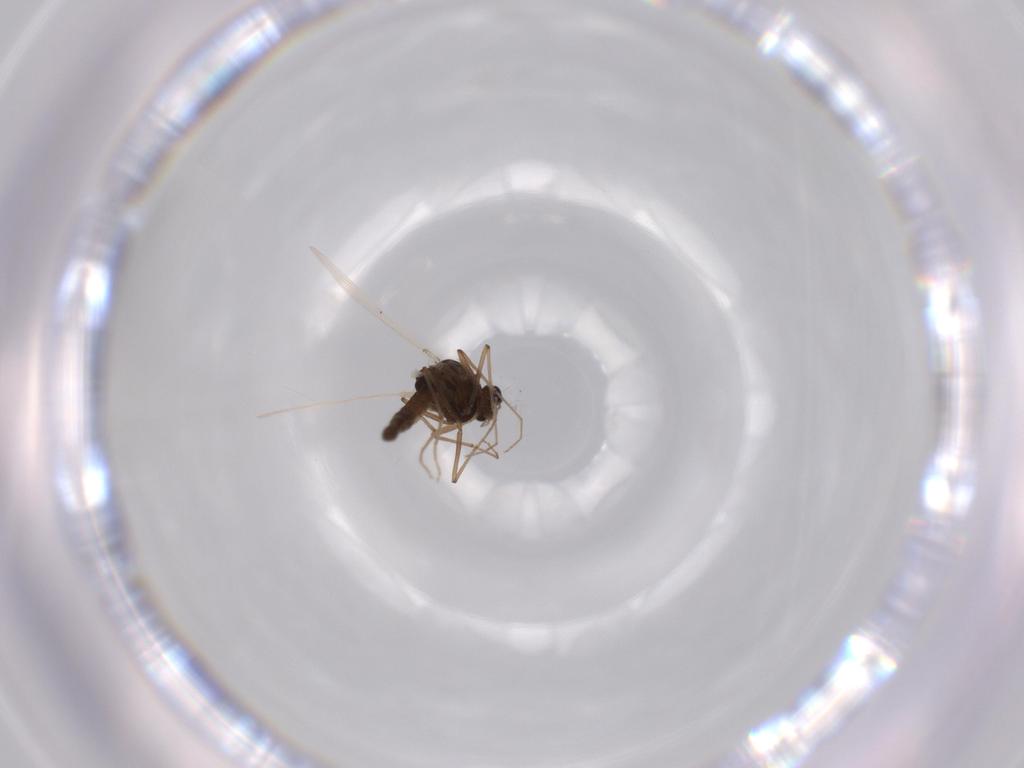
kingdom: Animalia
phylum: Arthropoda
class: Insecta
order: Diptera
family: Chironomidae
